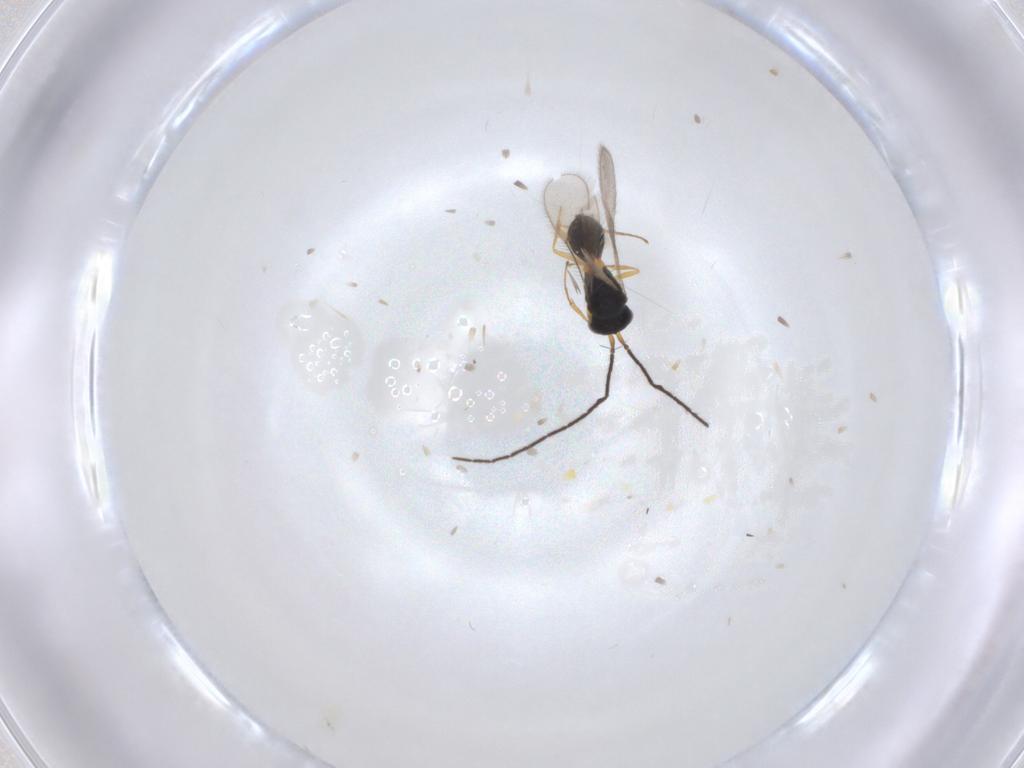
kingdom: Animalia
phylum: Arthropoda
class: Insecta
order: Hymenoptera
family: Scelionidae
